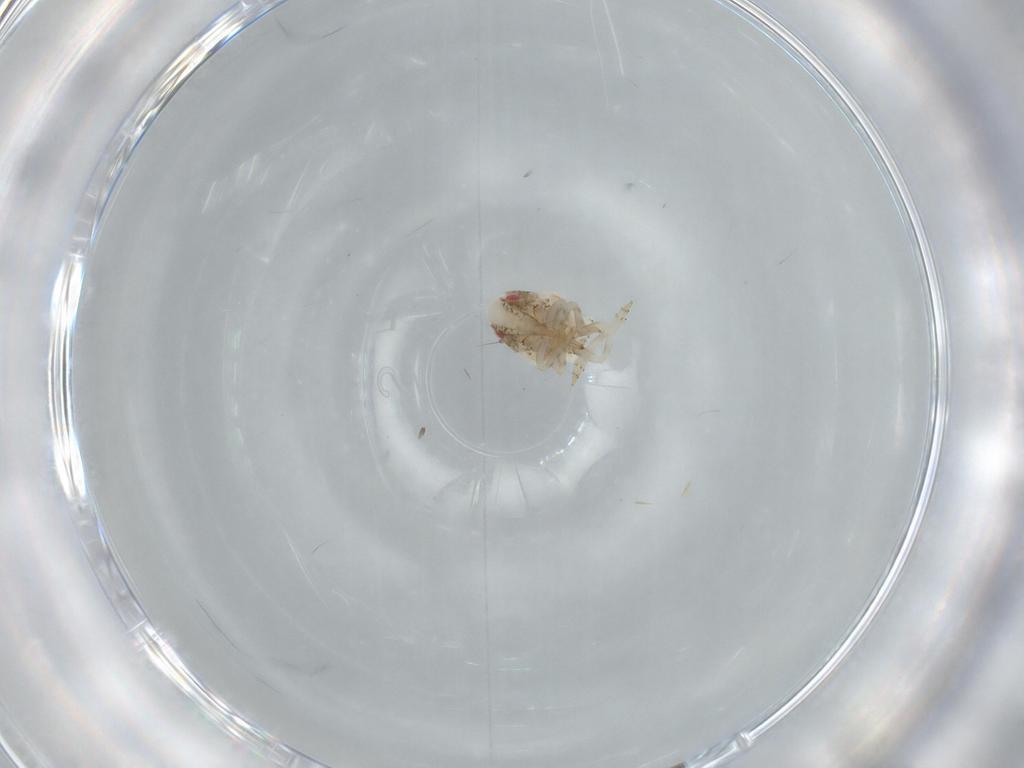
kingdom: Animalia
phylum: Arthropoda
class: Insecta
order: Hemiptera
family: Acanaloniidae
